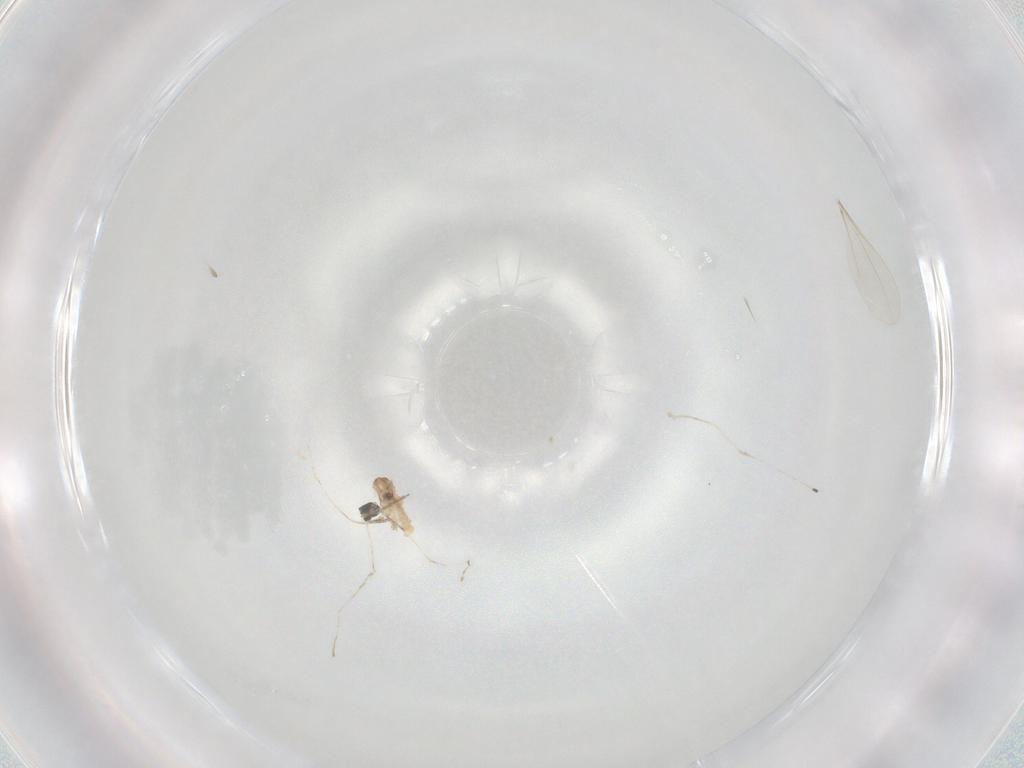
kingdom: Animalia
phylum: Arthropoda
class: Insecta
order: Diptera
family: Cecidomyiidae
